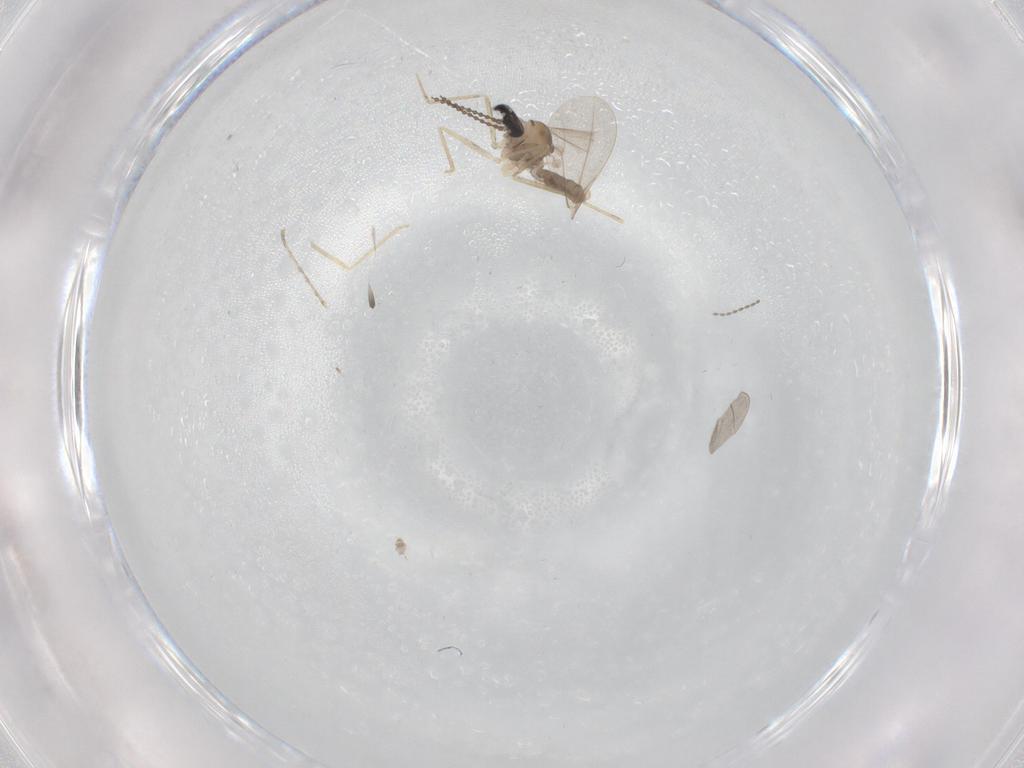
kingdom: Animalia
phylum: Arthropoda
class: Insecta
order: Diptera
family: Cecidomyiidae
